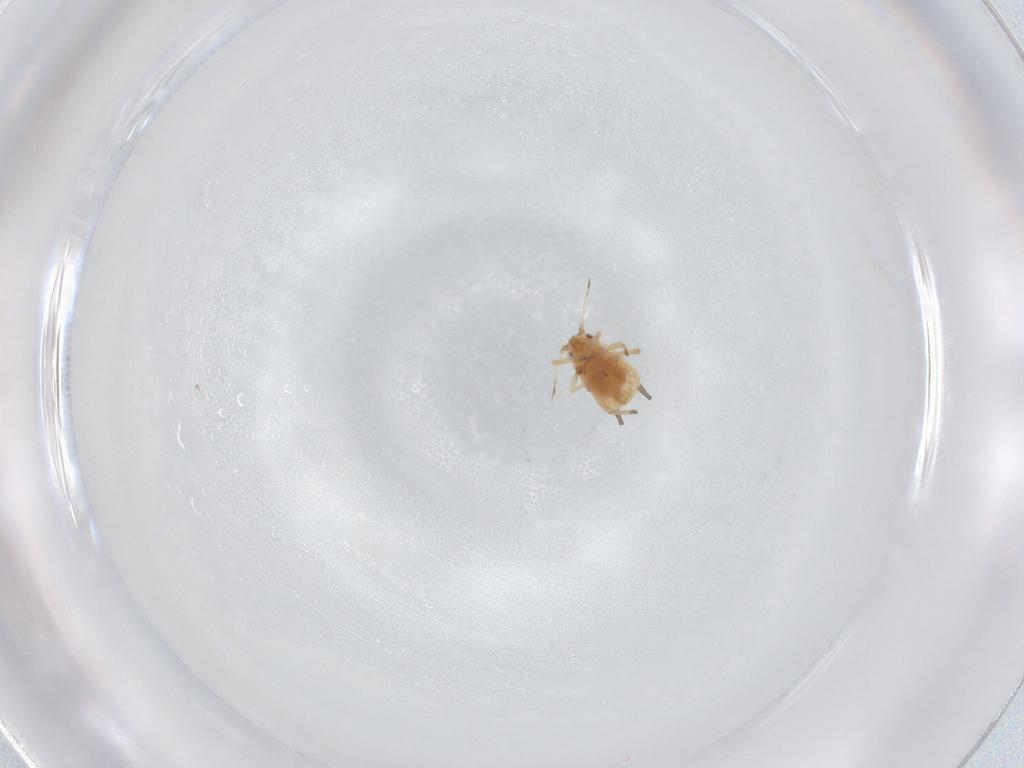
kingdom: Animalia
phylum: Arthropoda
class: Insecta
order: Hemiptera
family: Aphididae
